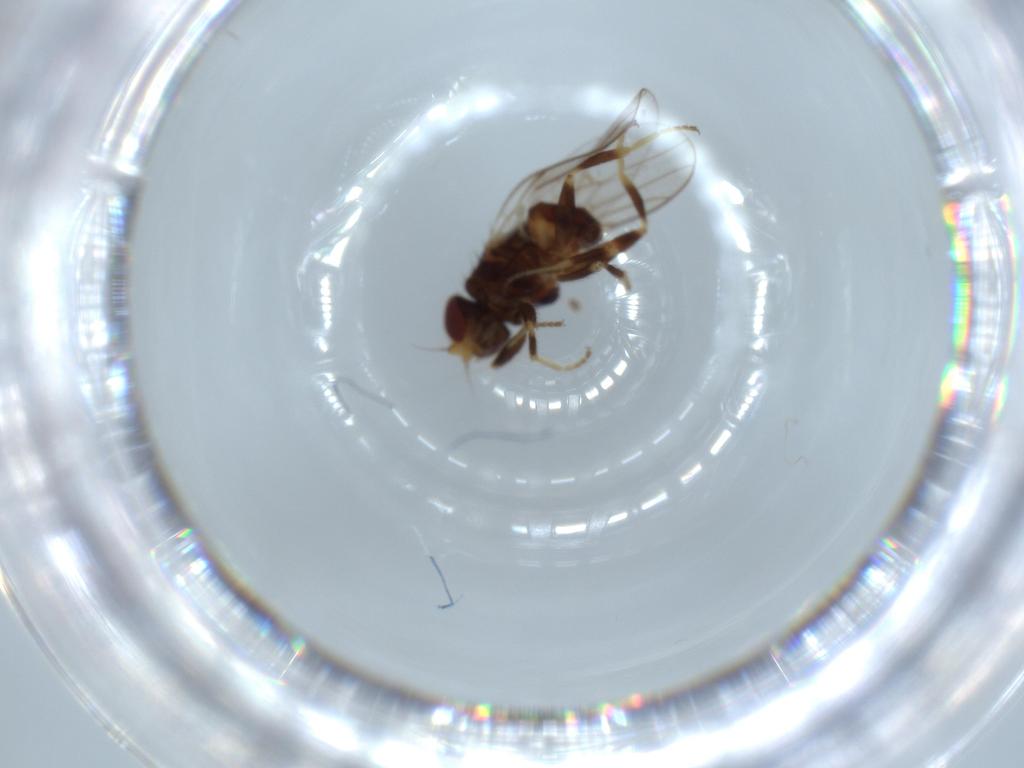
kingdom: Animalia
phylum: Arthropoda
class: Insecta
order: Diptera
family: Chloropidae
